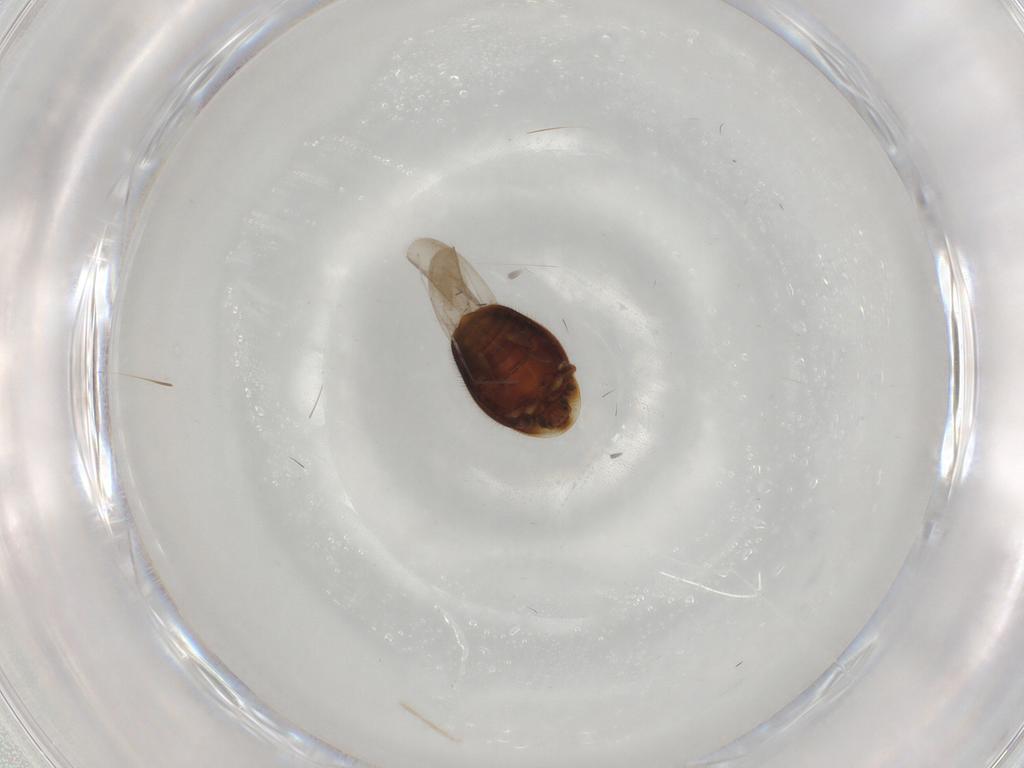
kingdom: Animalia
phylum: Arthropoda
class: Insecta
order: Coleoptera
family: Corylophidae
